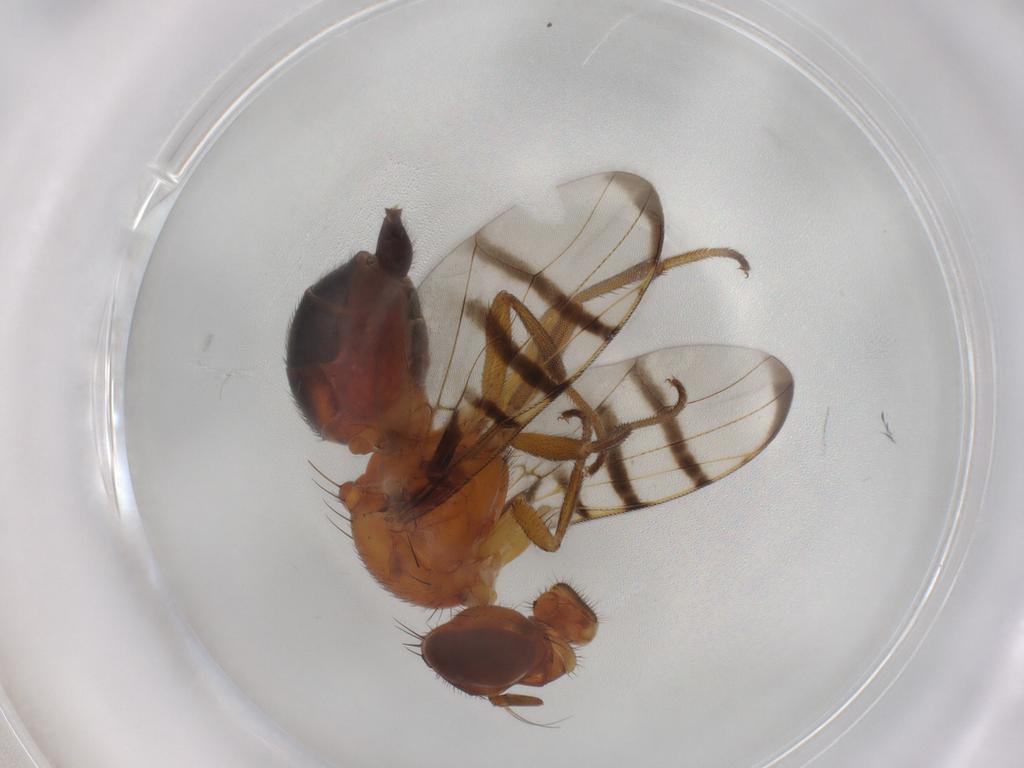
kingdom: Animalia
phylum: Arthropoda
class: Insecta
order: Diptera
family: Platystomatidae
